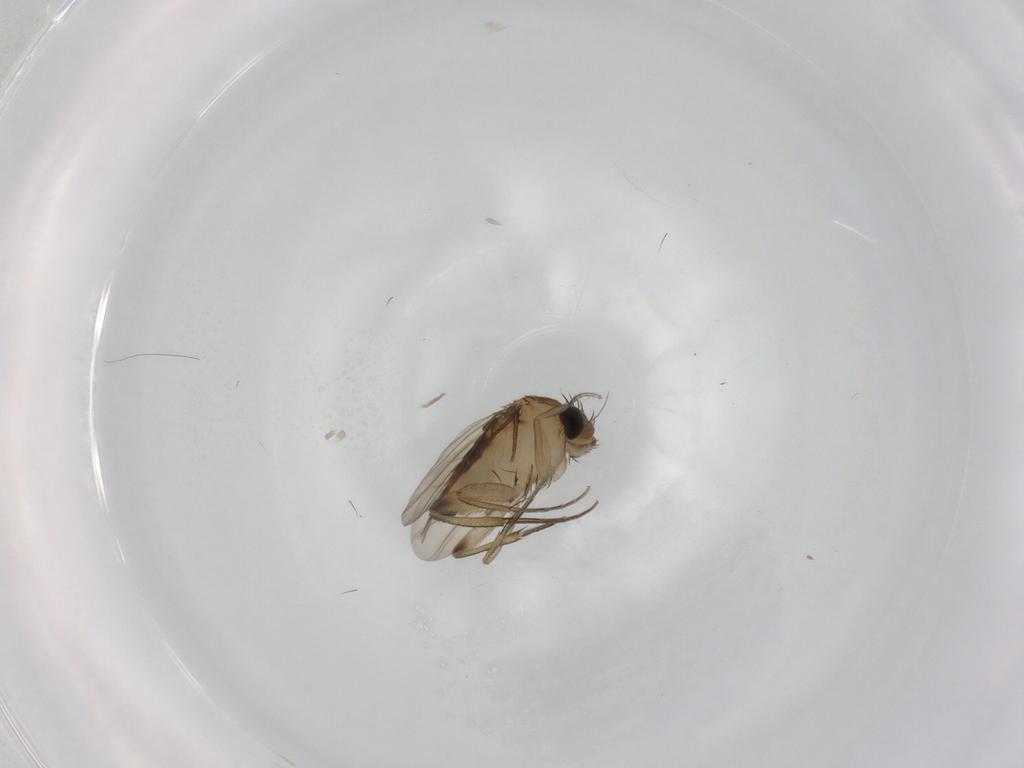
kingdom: Animalia
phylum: Arthropoda
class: Insecta
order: Diptera
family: Phoridae
